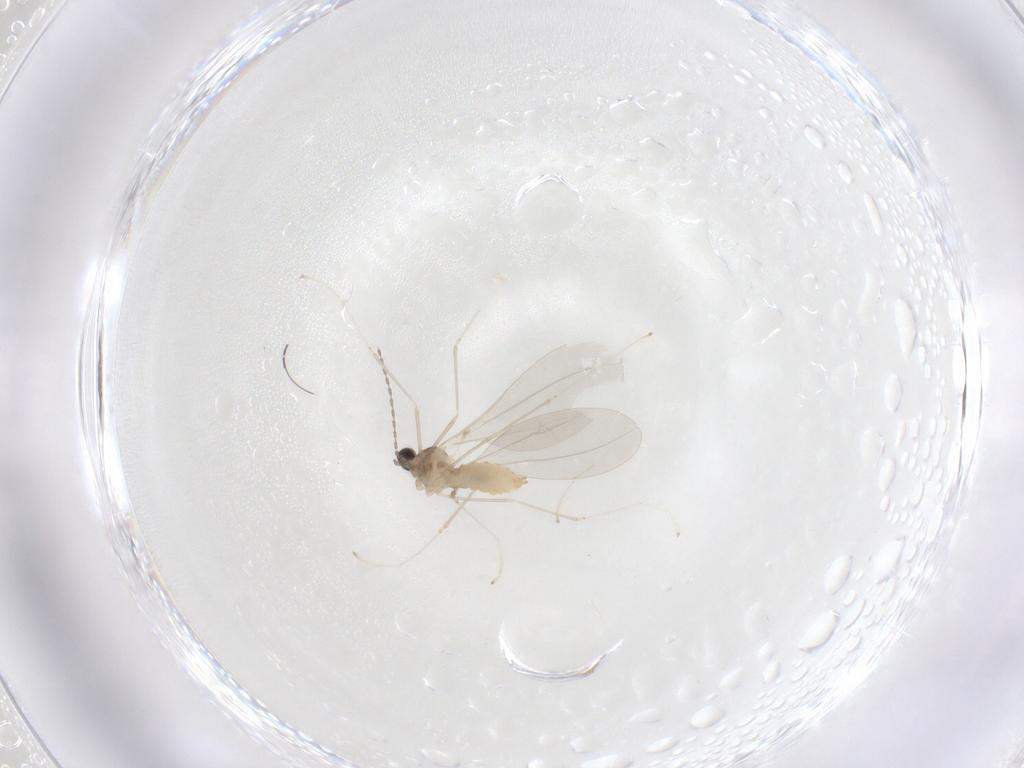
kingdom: Animalia
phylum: Arthropoda
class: Insecta
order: Diptera
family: Cecidomyiidae
